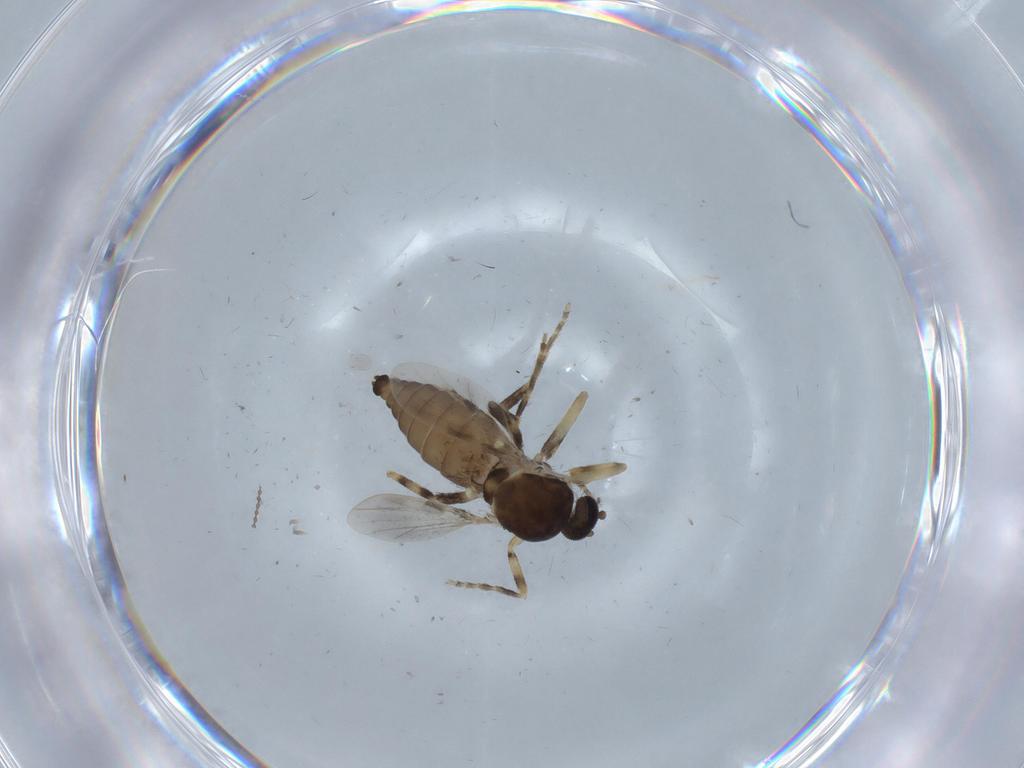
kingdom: Animalia
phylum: Arthropoda
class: Insecta
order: Diptera
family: Ceratopogonidae
